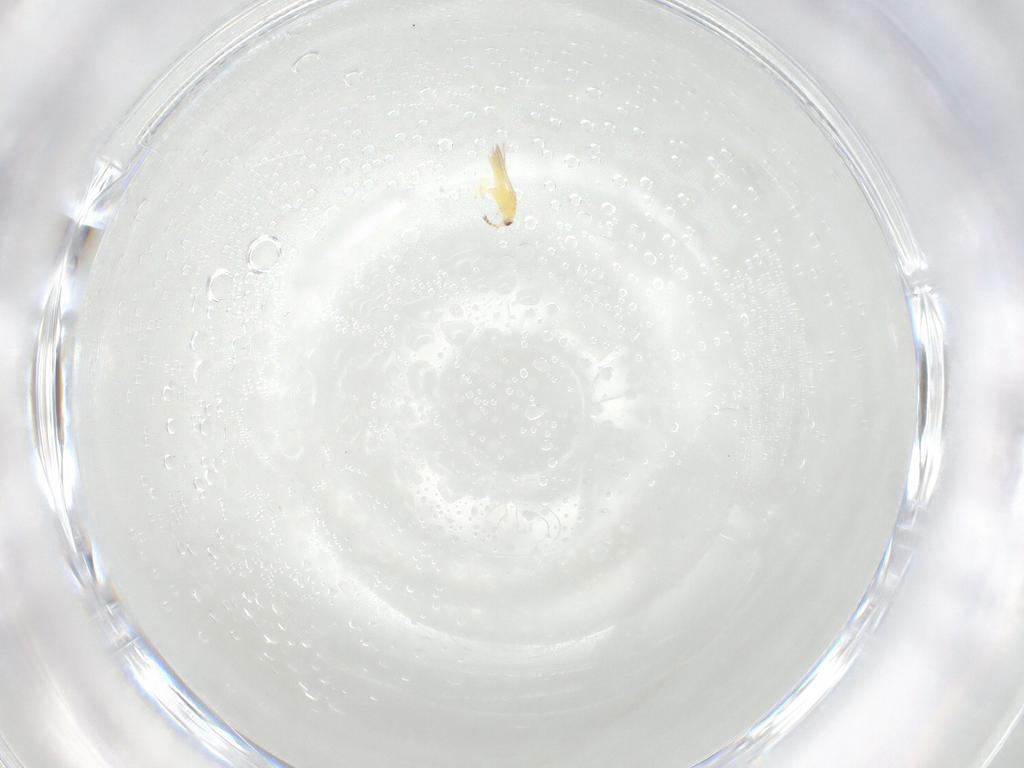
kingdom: Animalia
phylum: Arthropoda
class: Insecta
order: Thysanoptera
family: Thripidae
